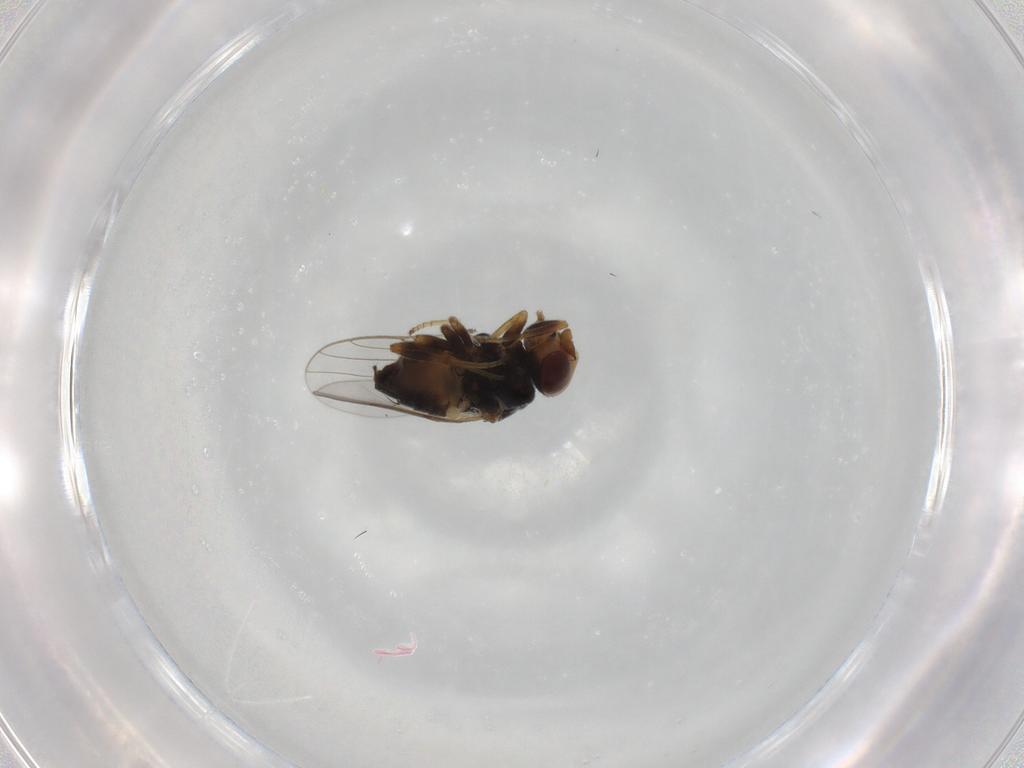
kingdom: Animalia
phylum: Arthropoda
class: Insecta
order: Diptera
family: Chloropidae
